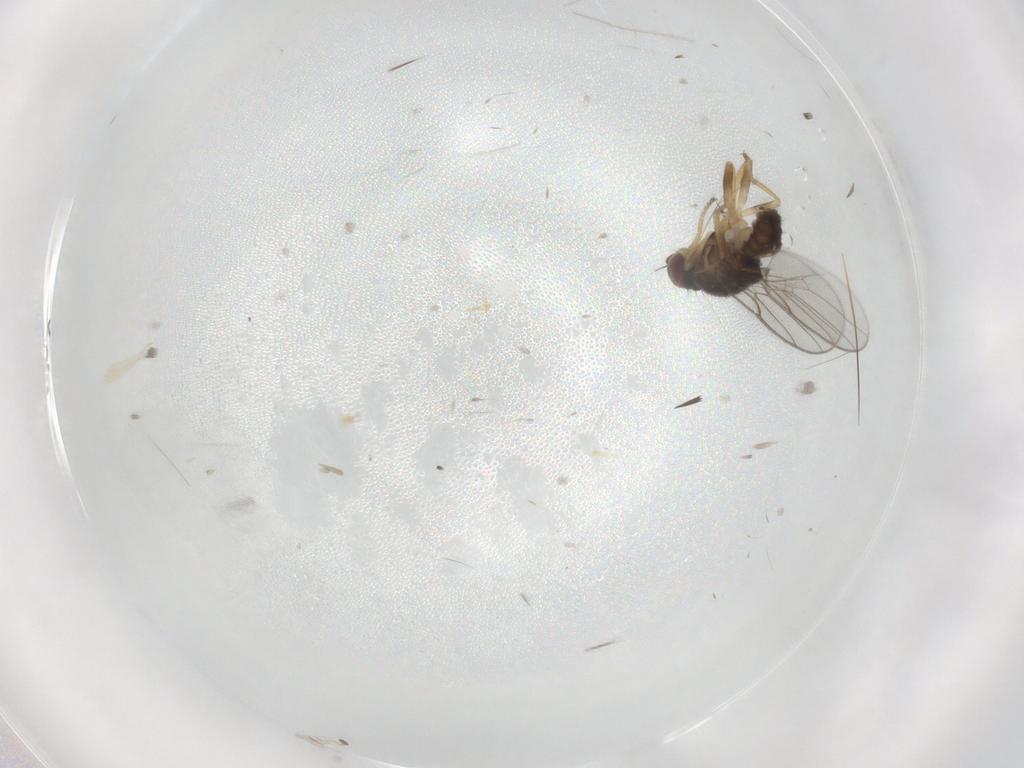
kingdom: Animalia
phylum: Arthropoda
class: Insecta
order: Diptera
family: Chloropidae
